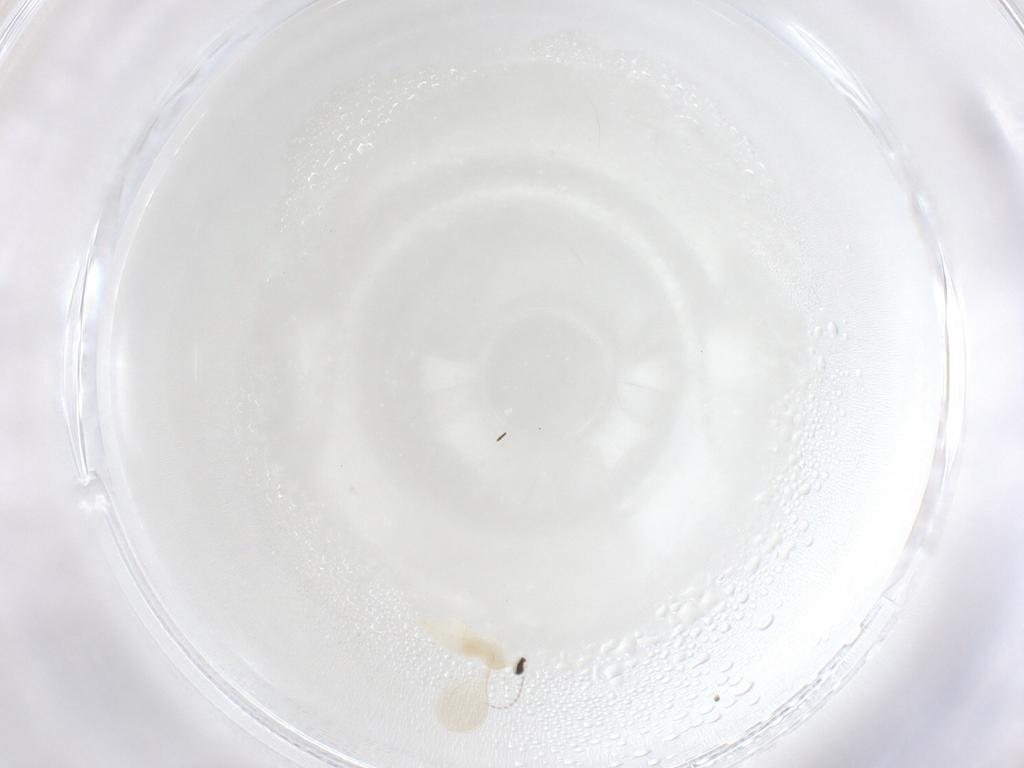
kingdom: Animalia
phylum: Arthropoda
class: Insecta
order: Diptera
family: Cecidomyiidae
